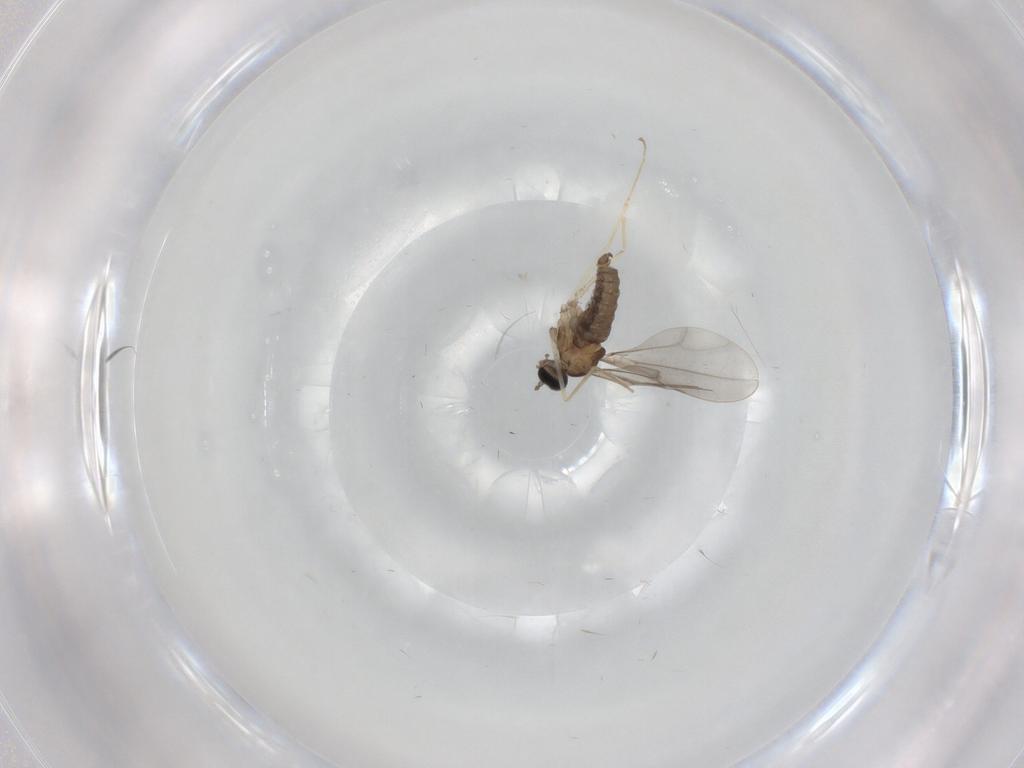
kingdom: Animalia
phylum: Arthropoda
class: Insecta
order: Diptera
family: Cecidomyiidae
